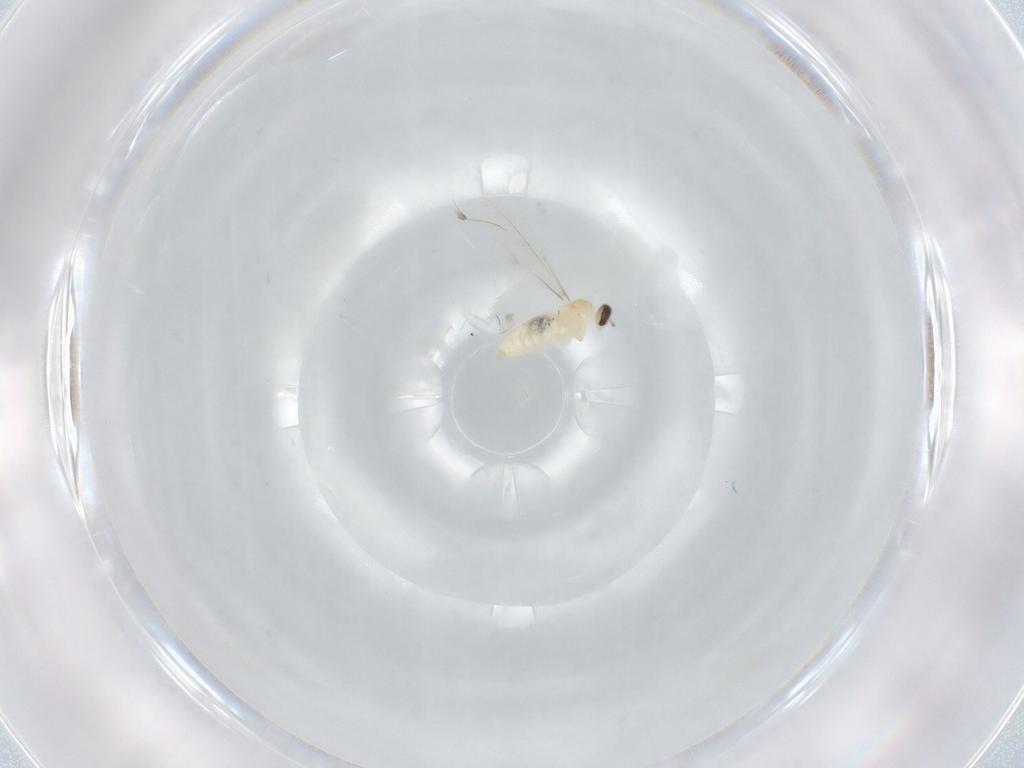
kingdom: Animalia
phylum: Arthropoda
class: Insecta
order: Diptera
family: Cecidomyiidae
